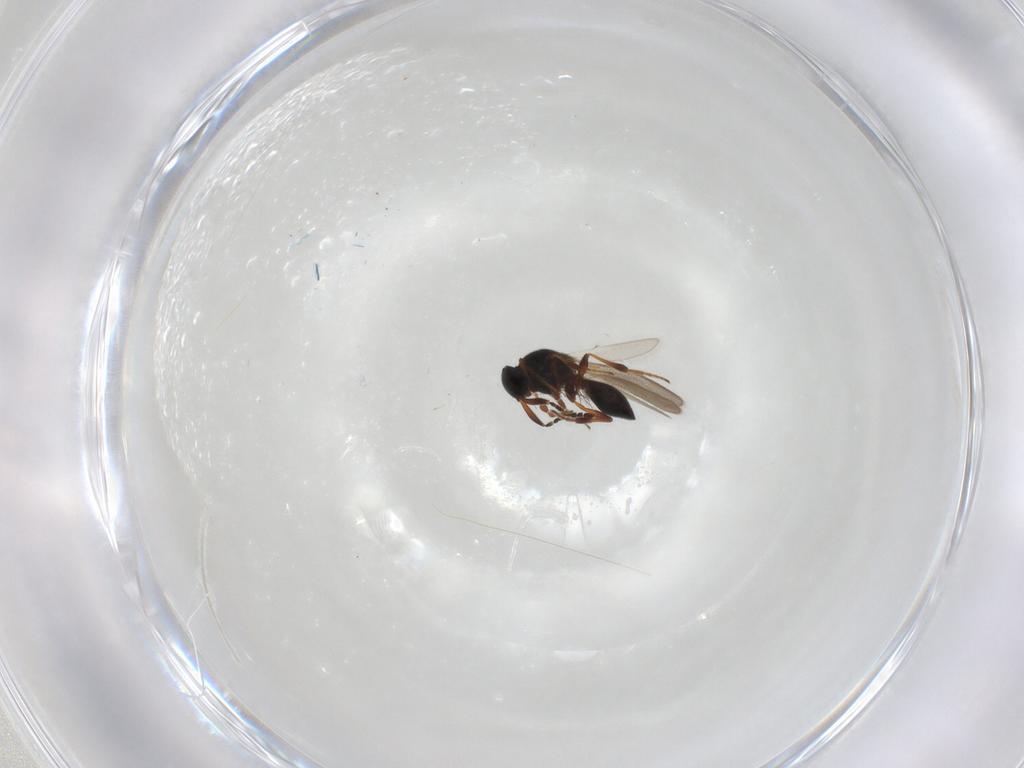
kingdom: Animalia
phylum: Arthropoda
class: Insecta
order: Hymenoptera
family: Platygastridae
